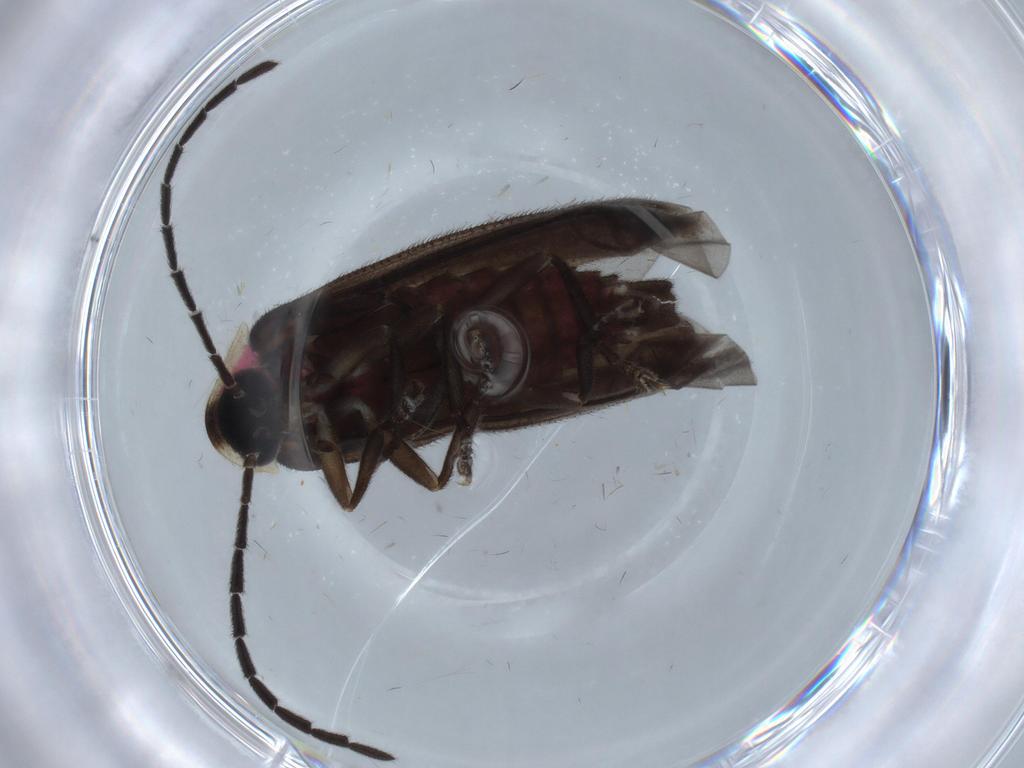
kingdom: Animalia
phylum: Arthropoda
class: Insecta
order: Coleoptera
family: Lampyridae
